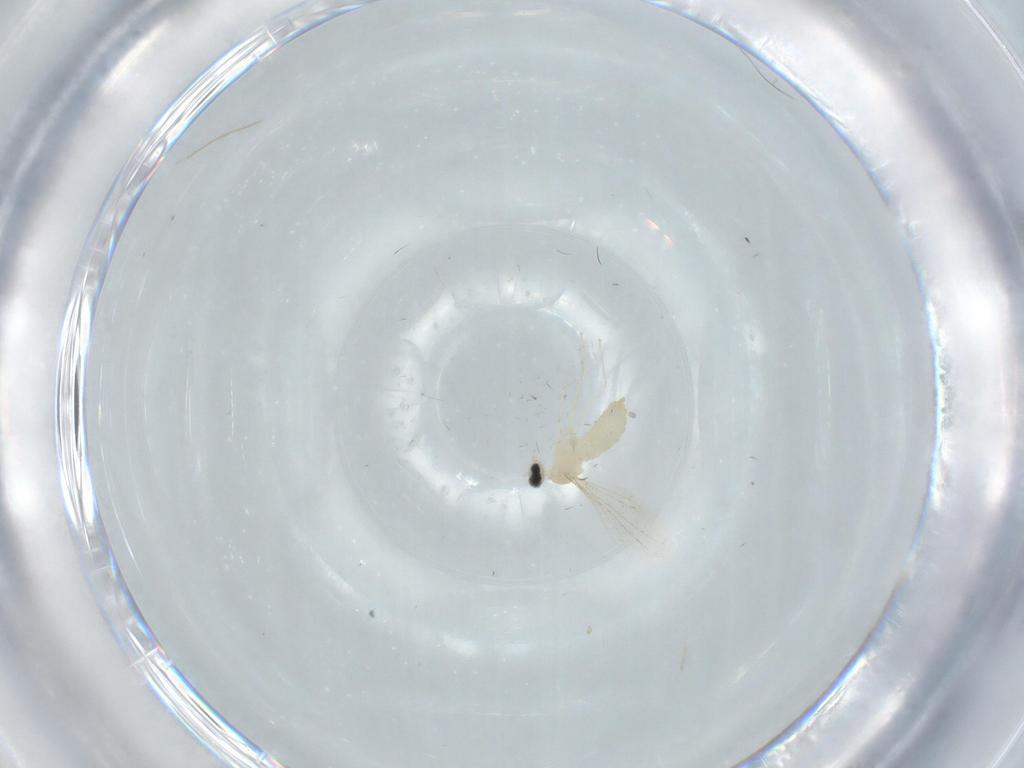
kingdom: Animalia
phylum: Arthropoda
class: Insecta
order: Diptera
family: Cecidomyiidae
